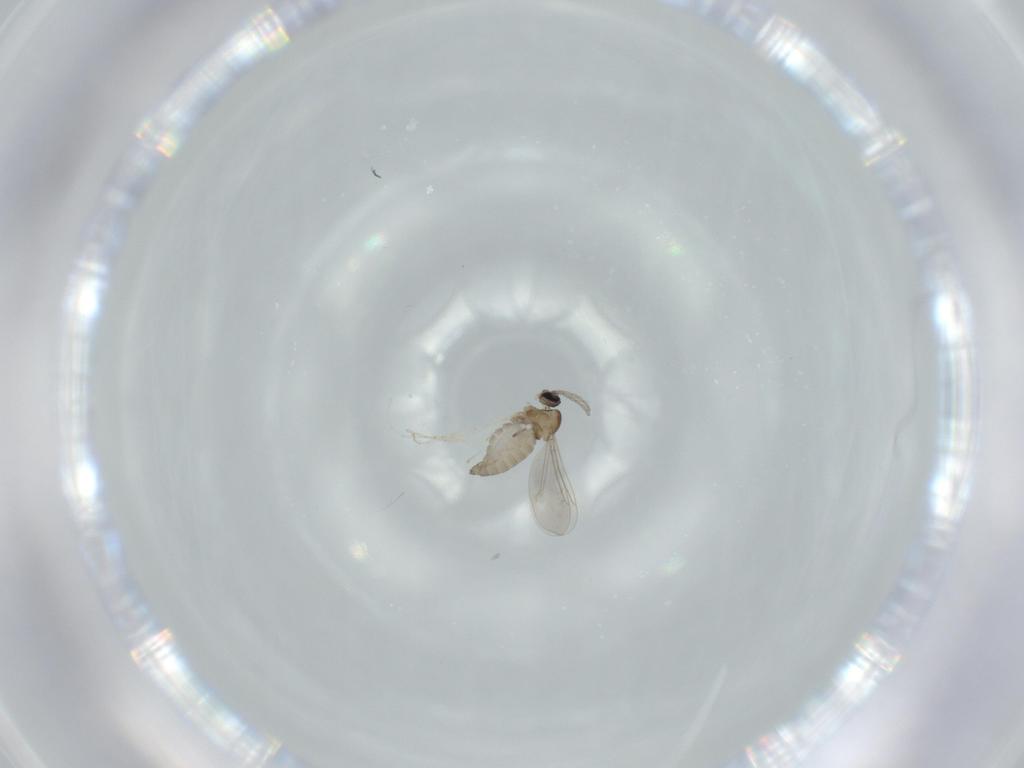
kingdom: Animalia
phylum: Arthropoda
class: Insecta
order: Diptera
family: Cecidomyiidae
